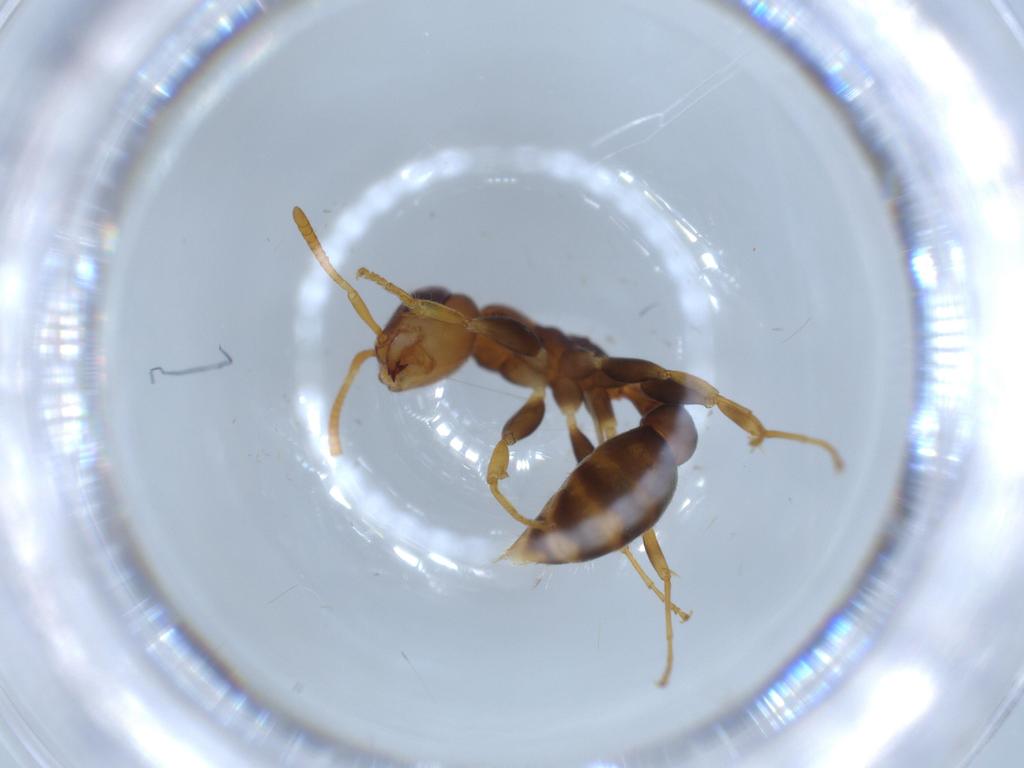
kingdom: Animalia
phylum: Arthropoda
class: Insecta
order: Hymenoptera
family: Formicidae
